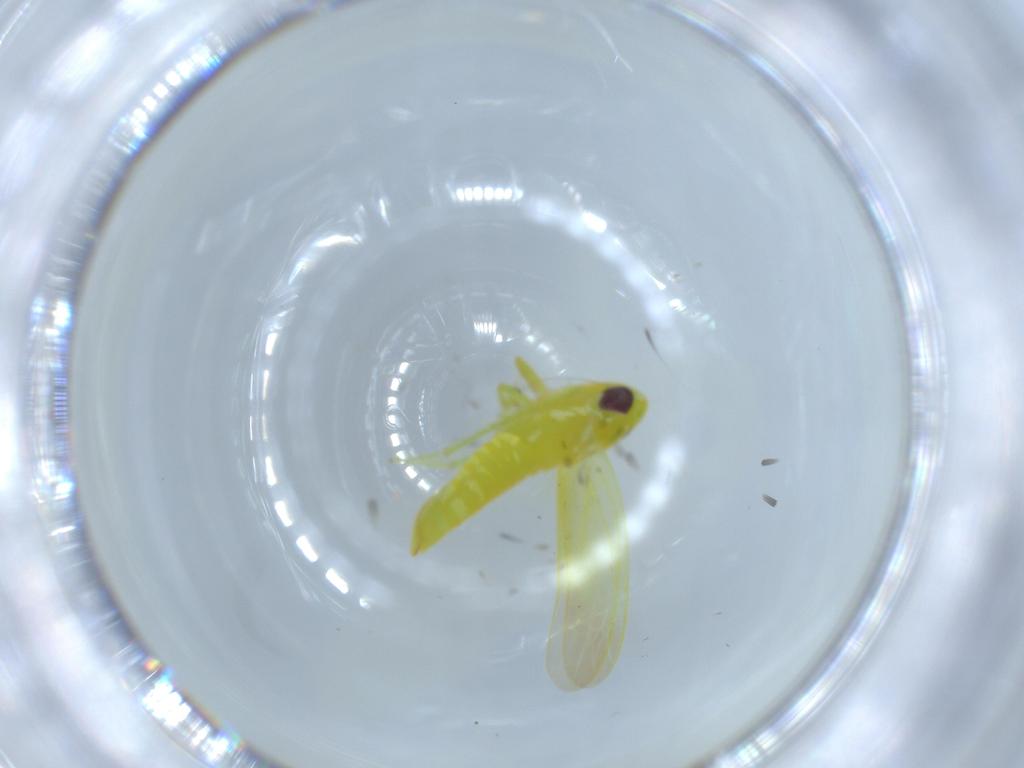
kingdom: Animalia
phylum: Arthropoda
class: Insecta
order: Hemiptera
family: Cicadellidae
